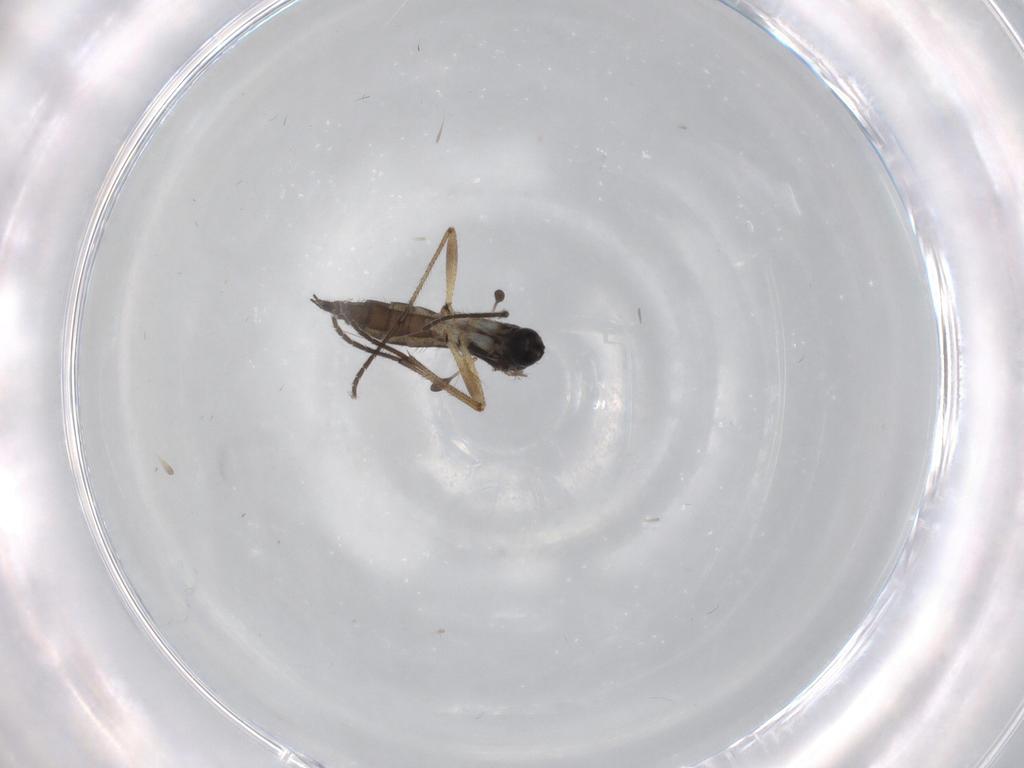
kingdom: Animalia
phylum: Arthropoda
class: Insecta
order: Diptera
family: Sciaridae
